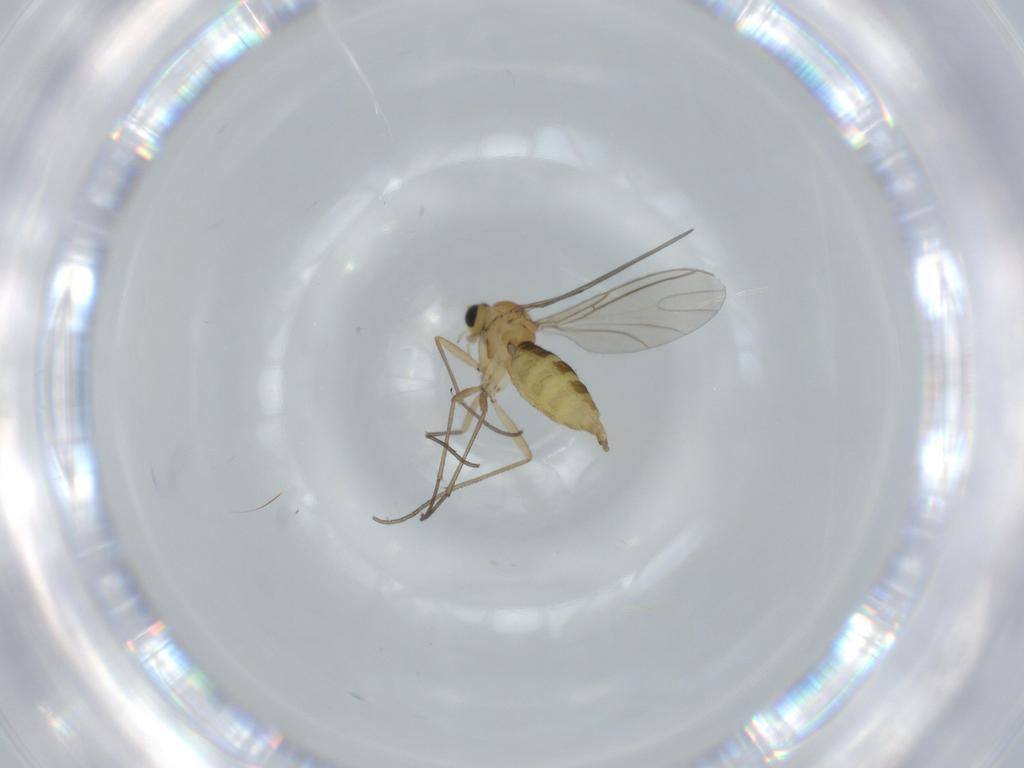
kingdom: Animalia
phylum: Arthropoda
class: Insecta
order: Diptera
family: Sciaridae
